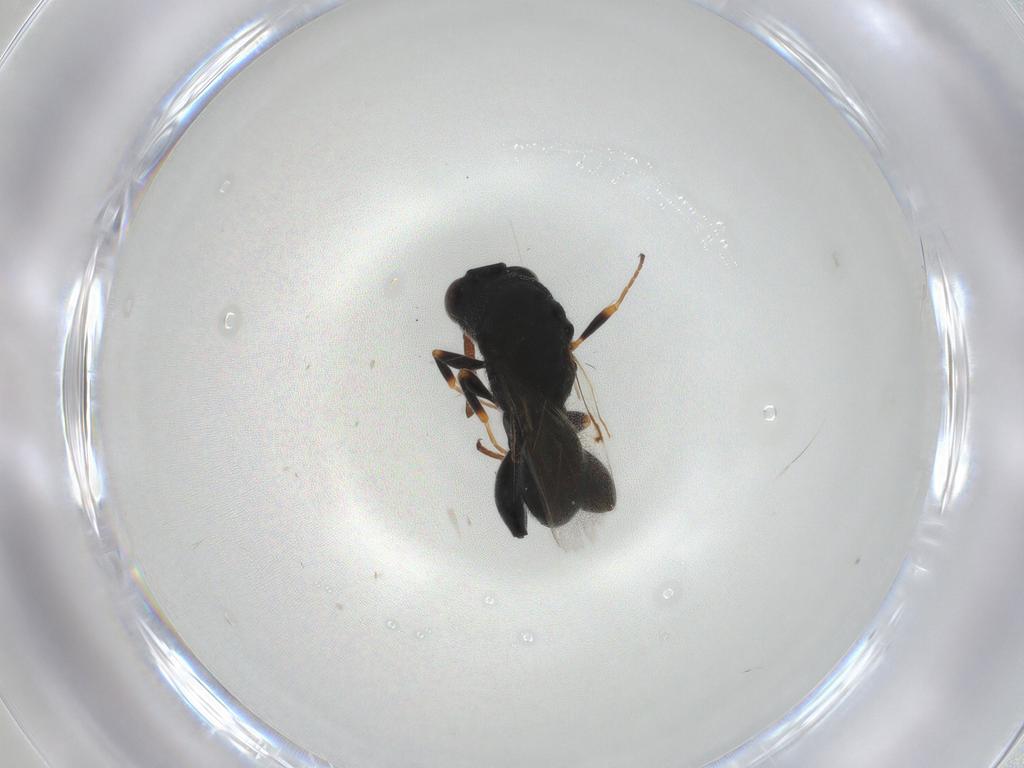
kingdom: Animalia
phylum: Arthropoda
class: Insecta
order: Hymenoptera
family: Chalcididae
